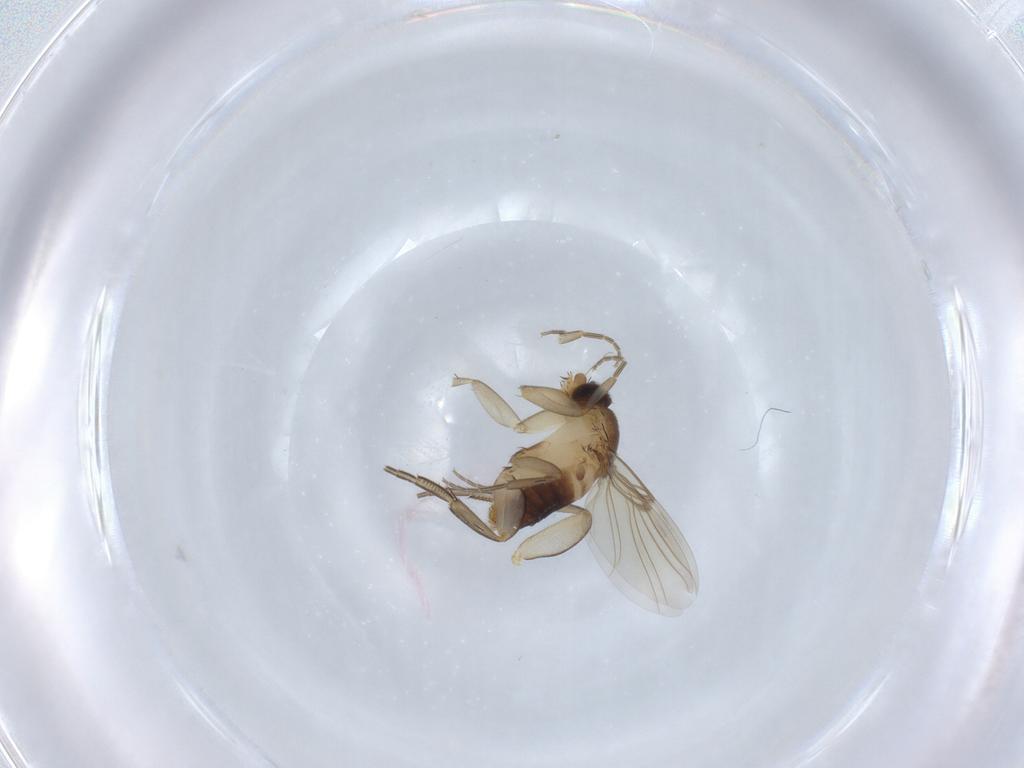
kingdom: Animalia
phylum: Arthropoda
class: Insecta
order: Diptera
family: Phoridae
